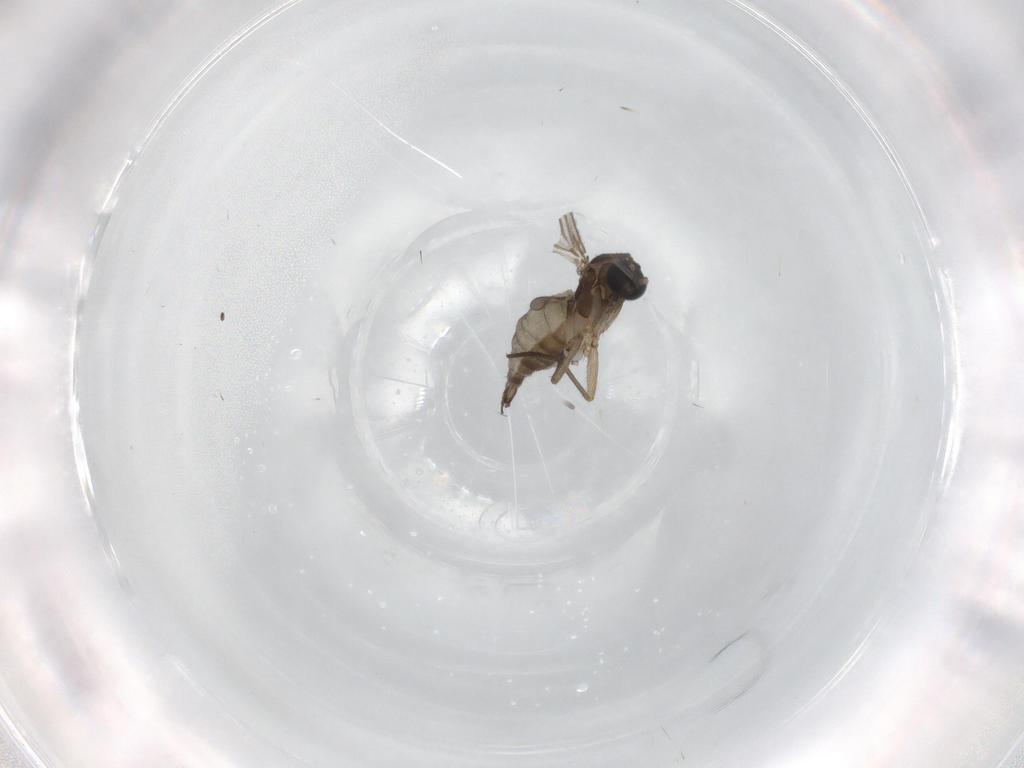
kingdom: Animalia
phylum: Arthropoda
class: Insecta
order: Diptera
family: Sciaridae
